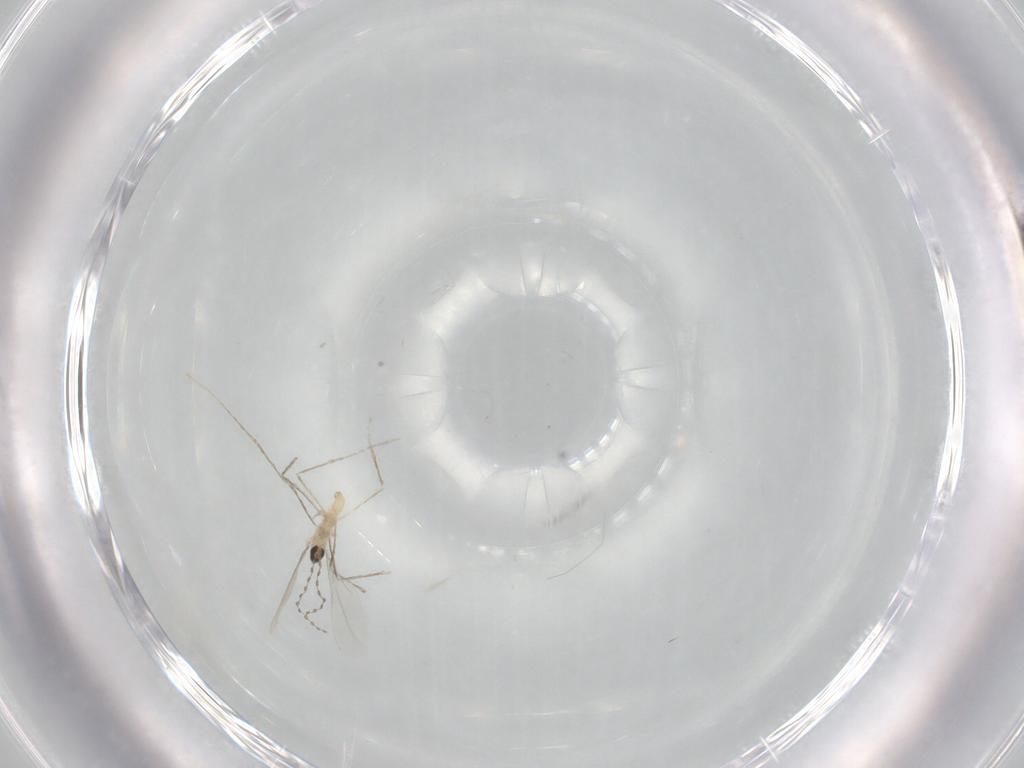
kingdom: Animalia
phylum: Arthropoda
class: Insecta
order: Diptera
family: Cecidomyiidae
